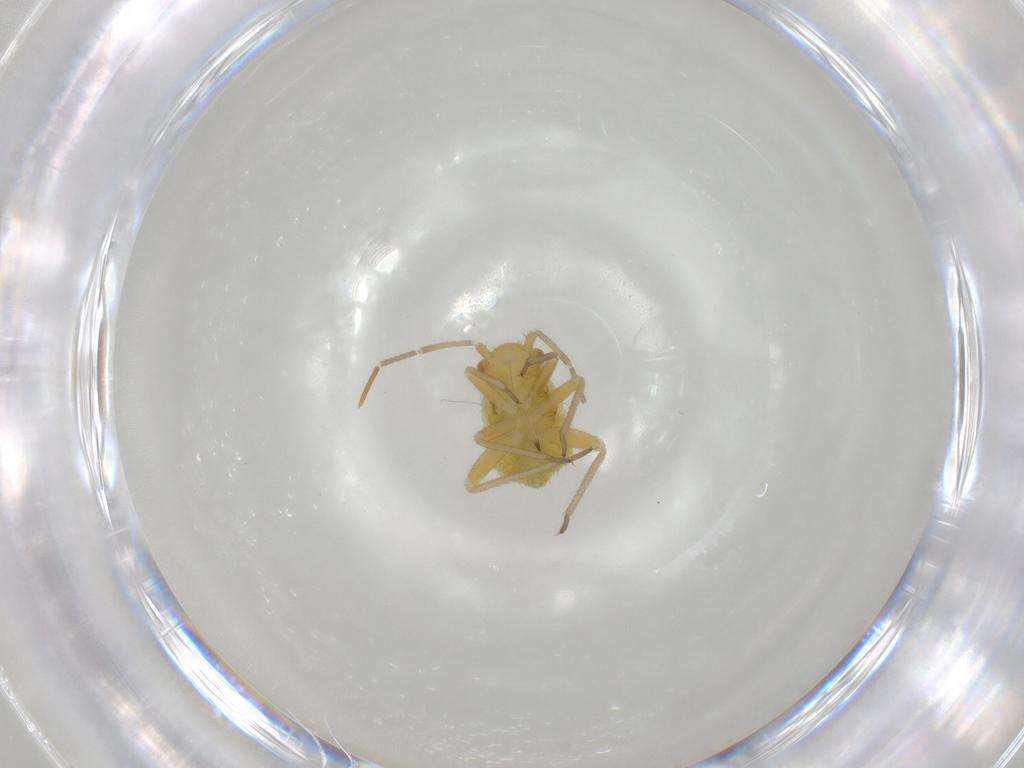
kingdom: Animalia
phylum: Arthropoda
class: Insecta
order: Hemiptera
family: Miridae
